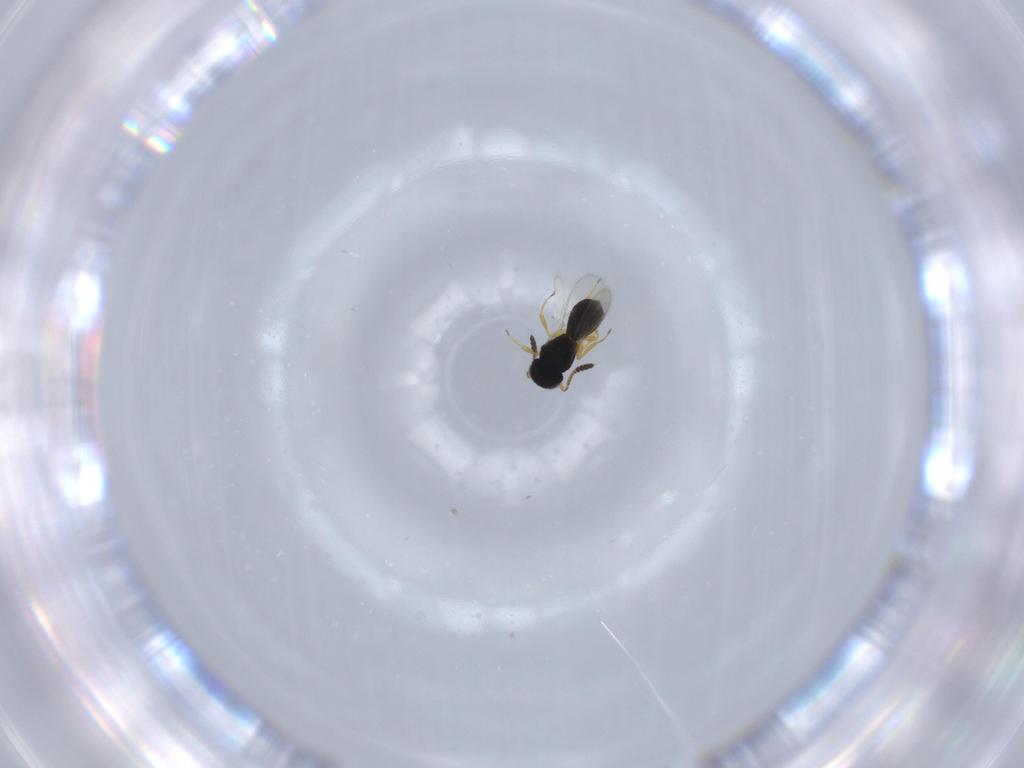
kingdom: Animalia
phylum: Arthropoda
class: Insecta
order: Hymenoptera
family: Scelionidae
